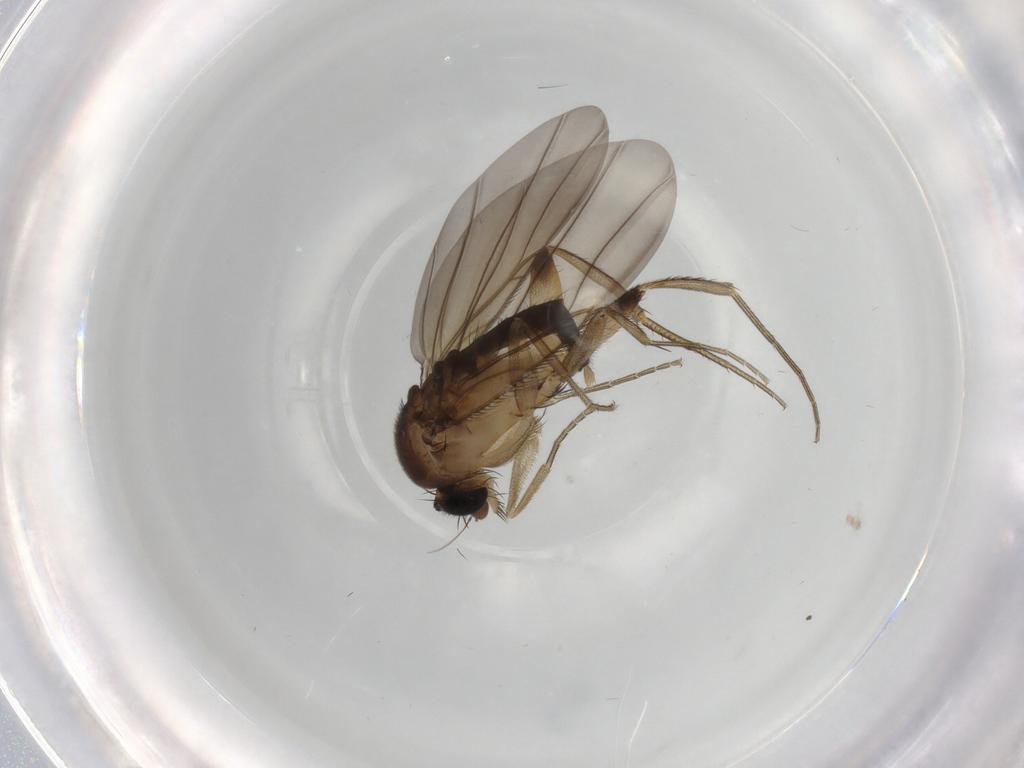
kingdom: Animalia
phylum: Arthropoda
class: Insecta
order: Diptera
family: Phoridae
